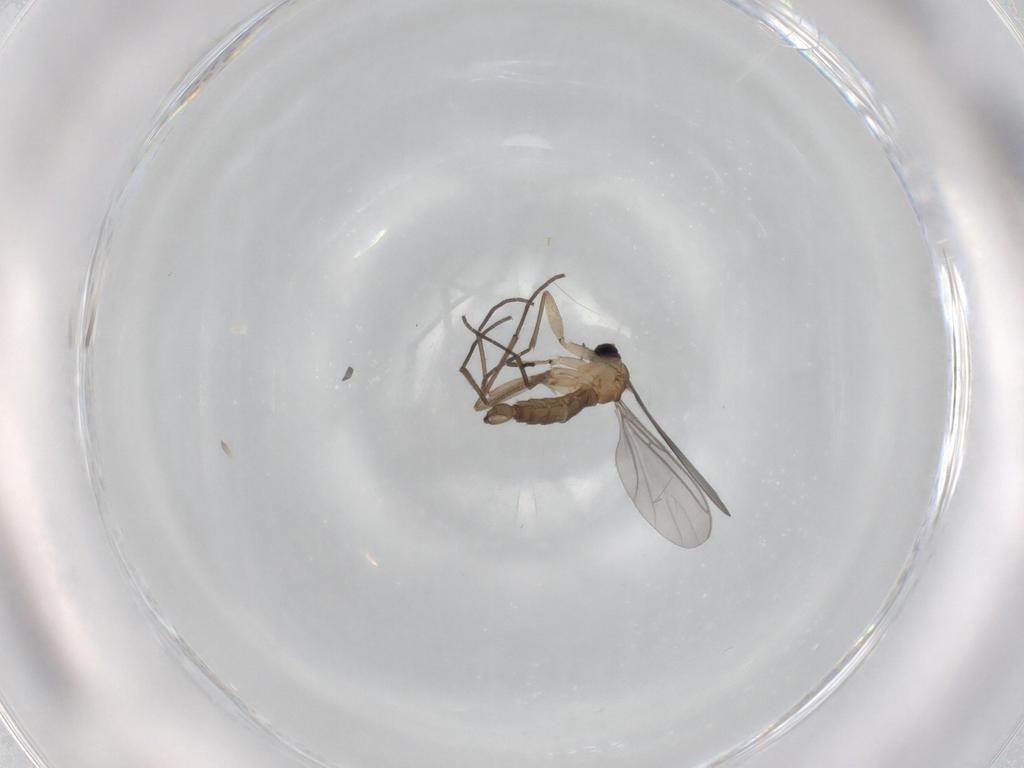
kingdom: Animalia
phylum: Arthropoda
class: Insecta
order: Diptera
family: Sciaridae
